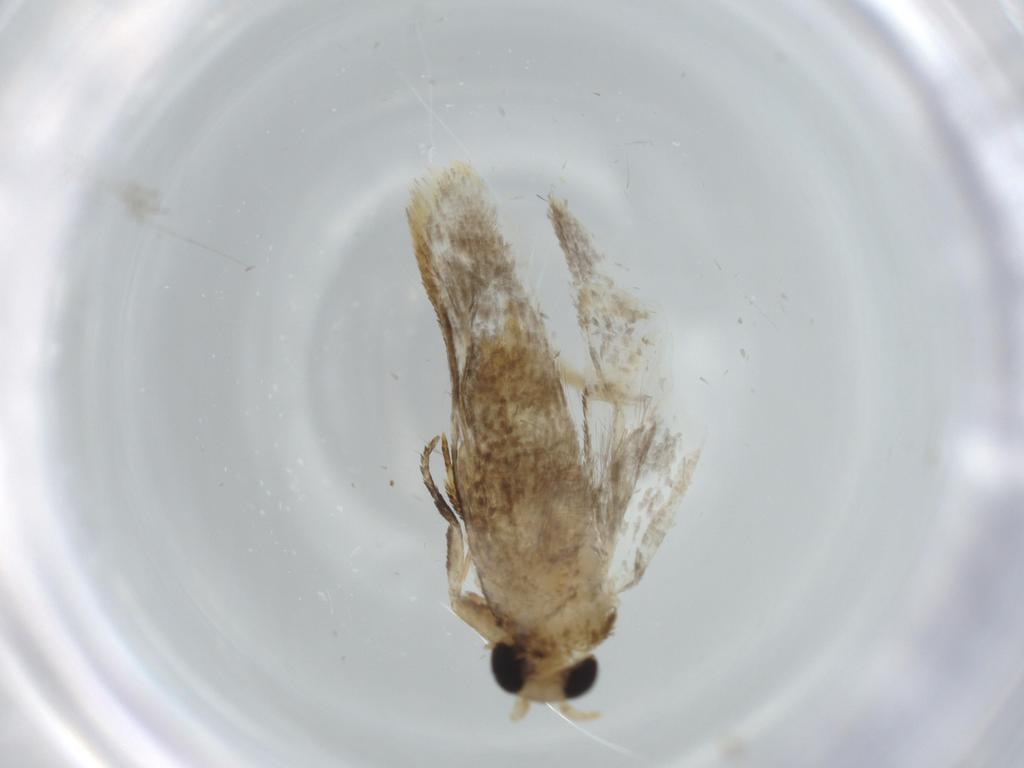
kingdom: Animalia
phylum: Arthropoda
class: Insecta
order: Lepidoptera
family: Tineidae
